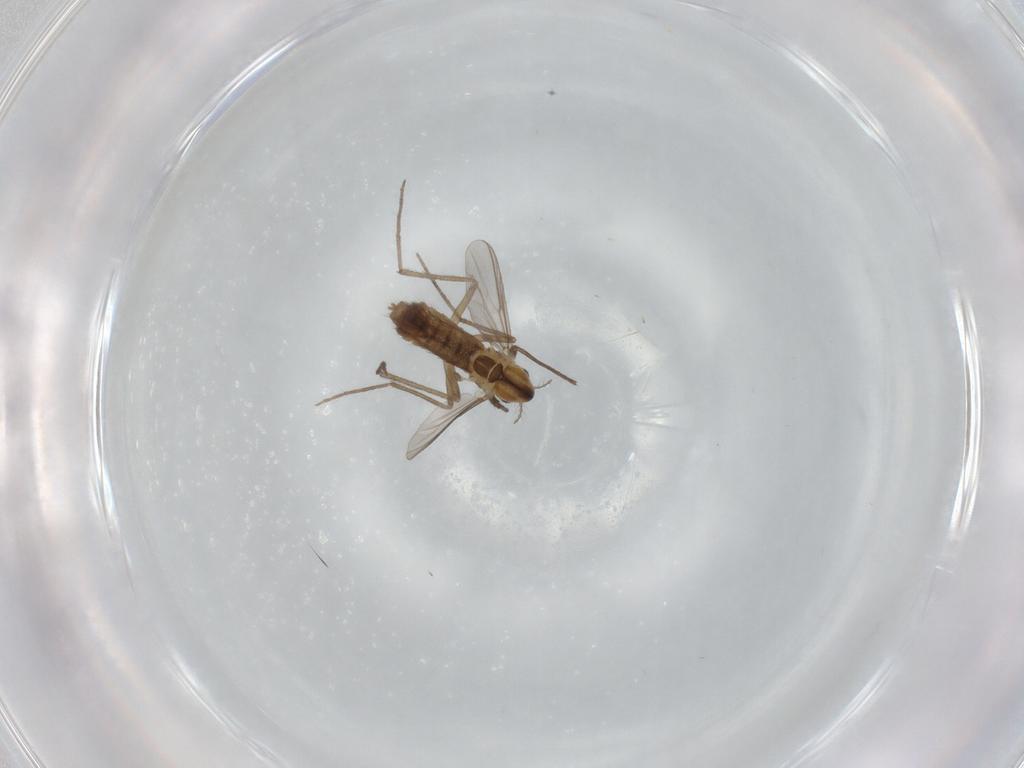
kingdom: Animalia
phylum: Arthropoda
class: Insecta
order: Diptera
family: Chironomidae
